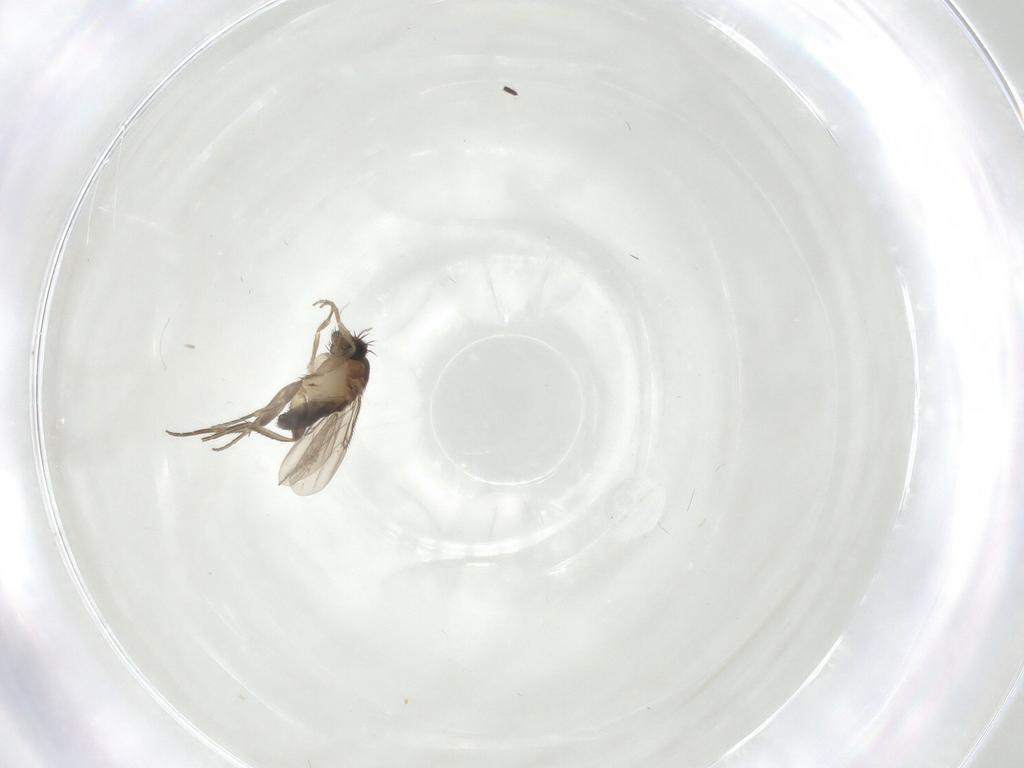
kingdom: Animalia
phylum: Arthropoda
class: Insecta
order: Diptera
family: Phoridae
